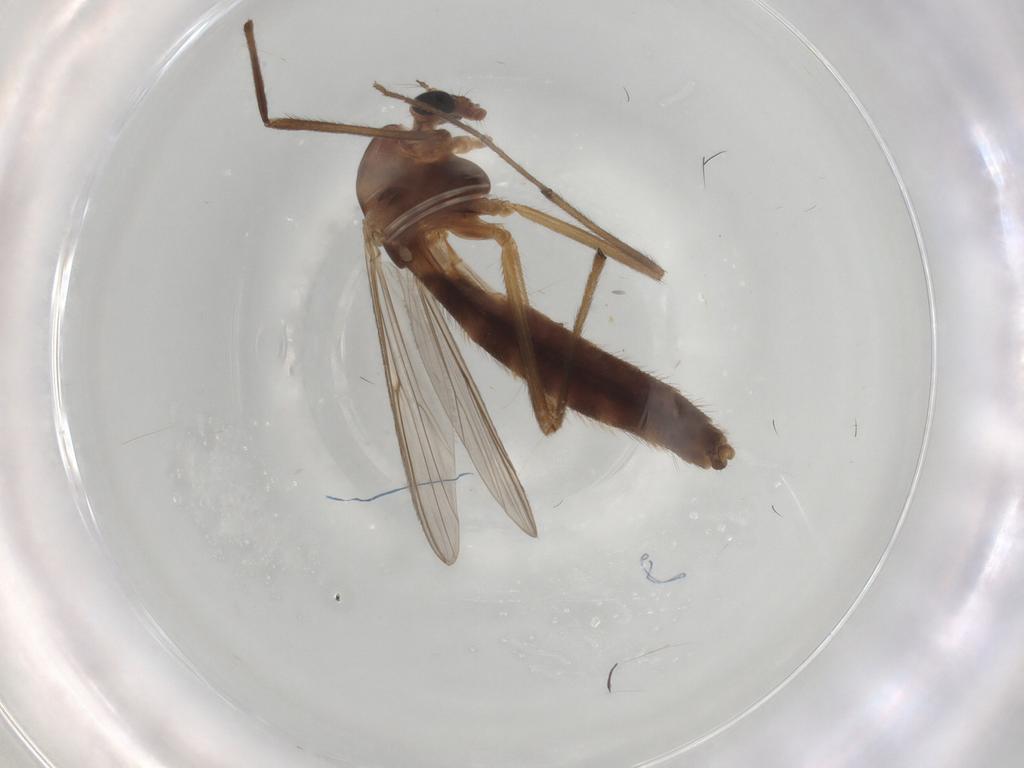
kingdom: Animalia
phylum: Arthropoda
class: Insecta
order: Diptera
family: Chironomidae
